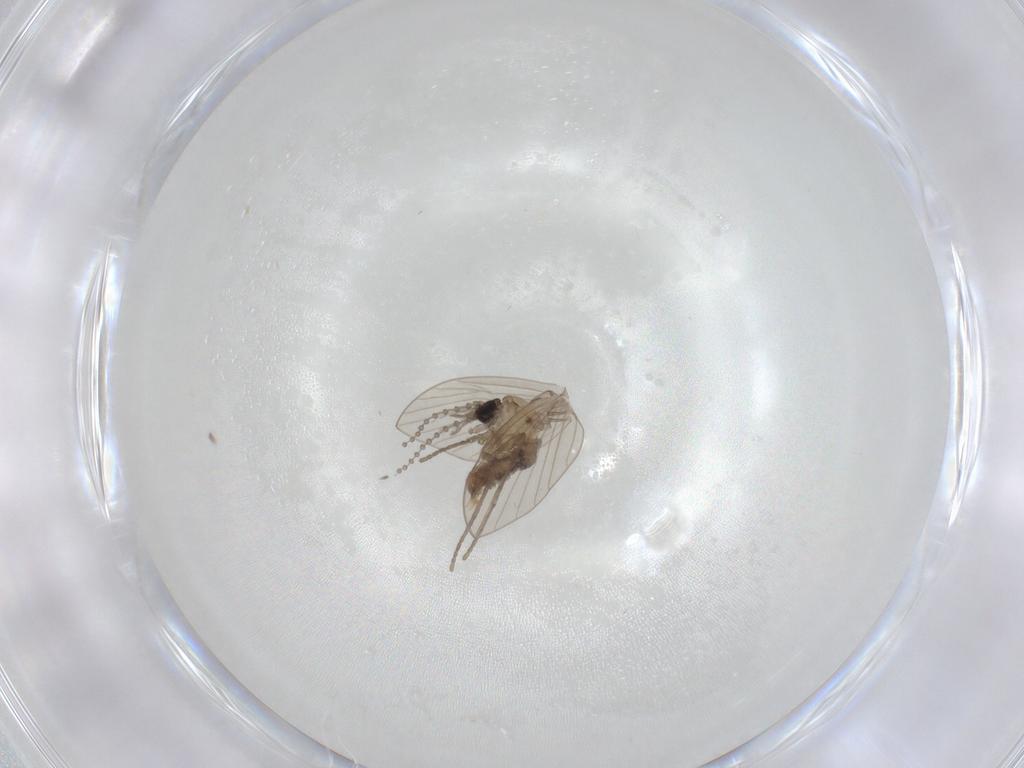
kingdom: Animalia
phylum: Arthropoda
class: Insecta
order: Diptera
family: Psychodidae
